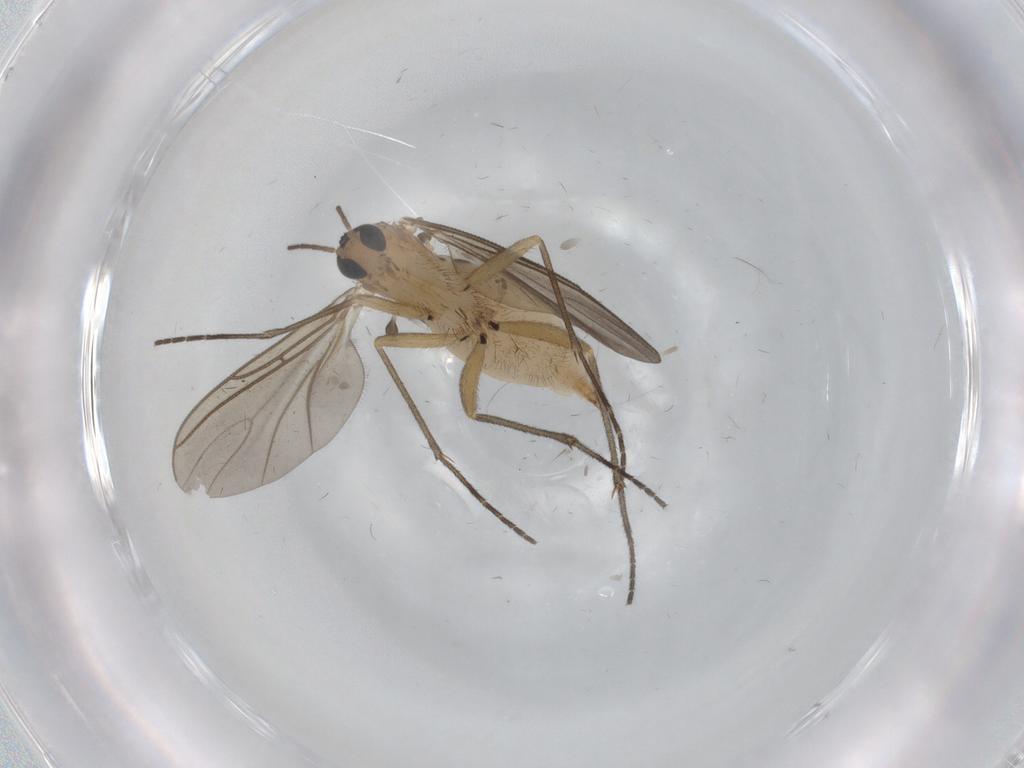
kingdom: Animalia
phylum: Arthropoda
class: Insecta
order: Diptera
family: Sciaridae
